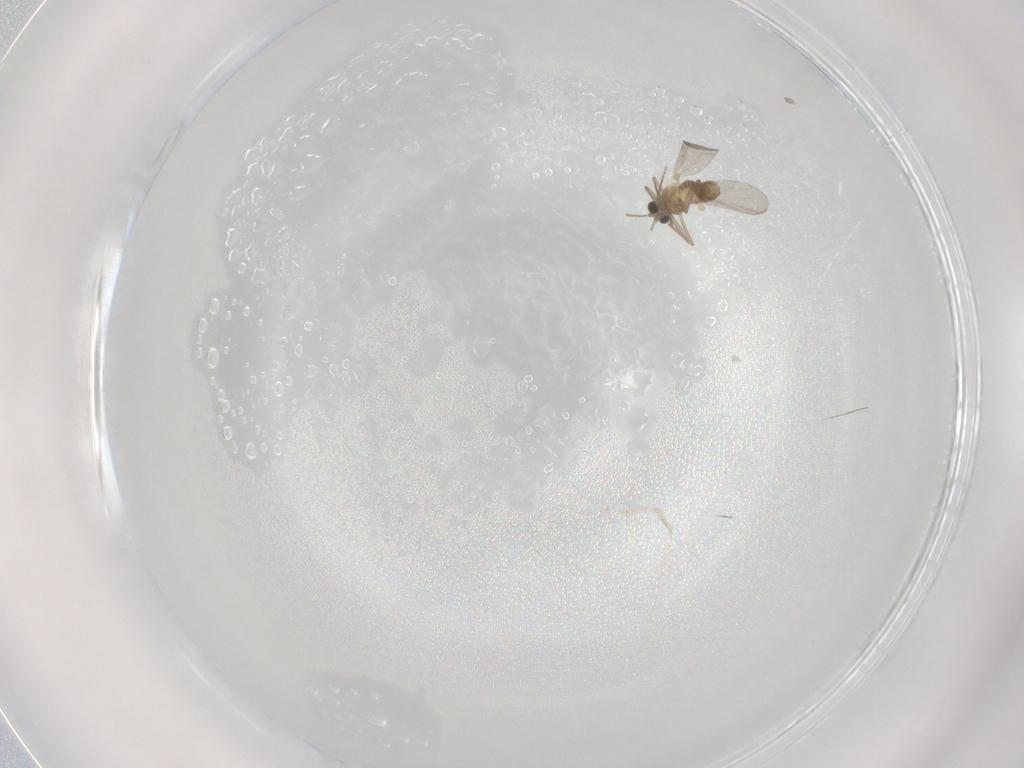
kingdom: Animalia
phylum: Arthropoda
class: Insecta
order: Diptera
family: Chironomidae
